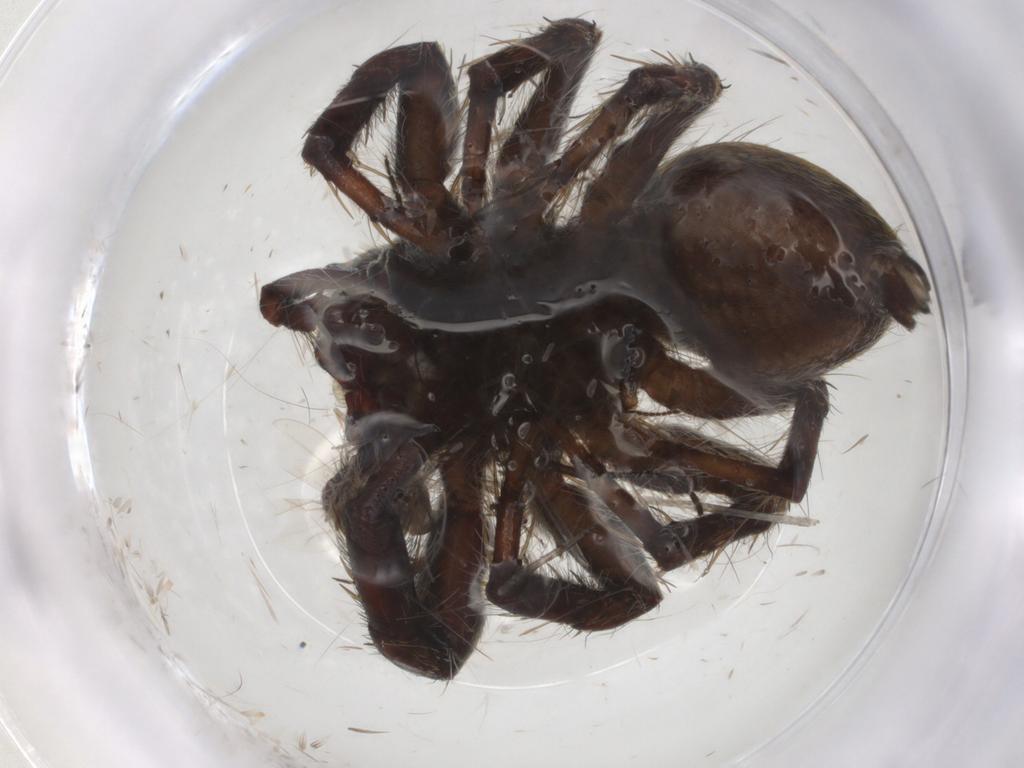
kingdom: Animalia
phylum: Arthropoda
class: Arachnida
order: Araneae
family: Salticidae
